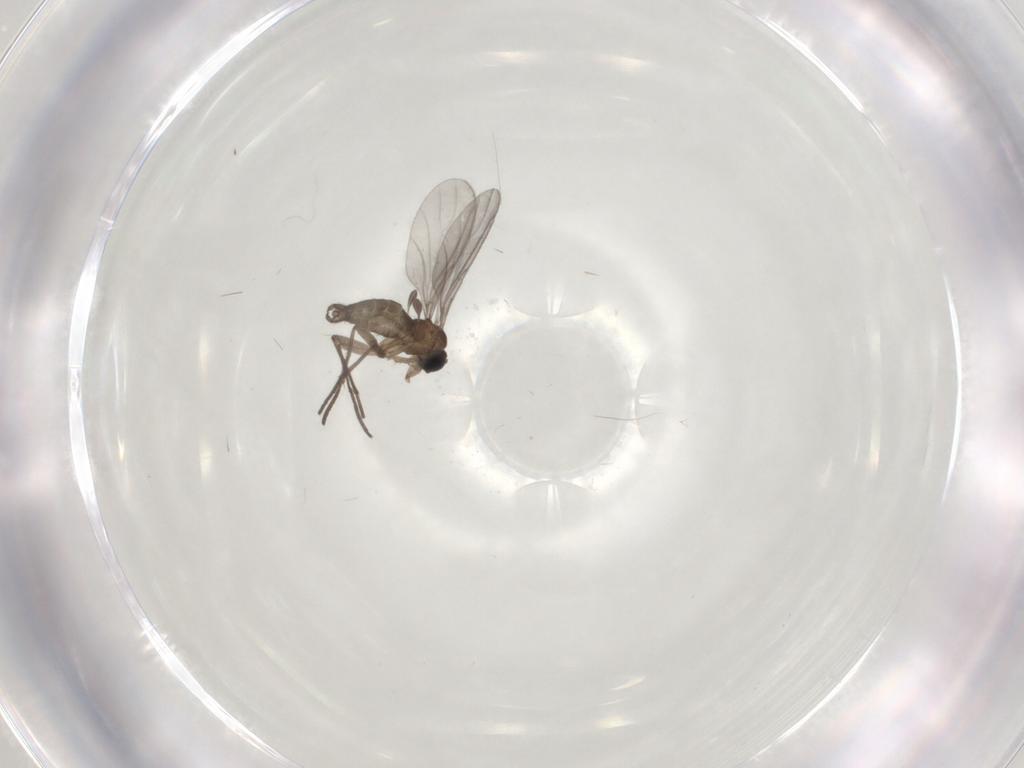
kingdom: Animalia
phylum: Arthropoda
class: Insecta
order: Diptera
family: Sciaridae
